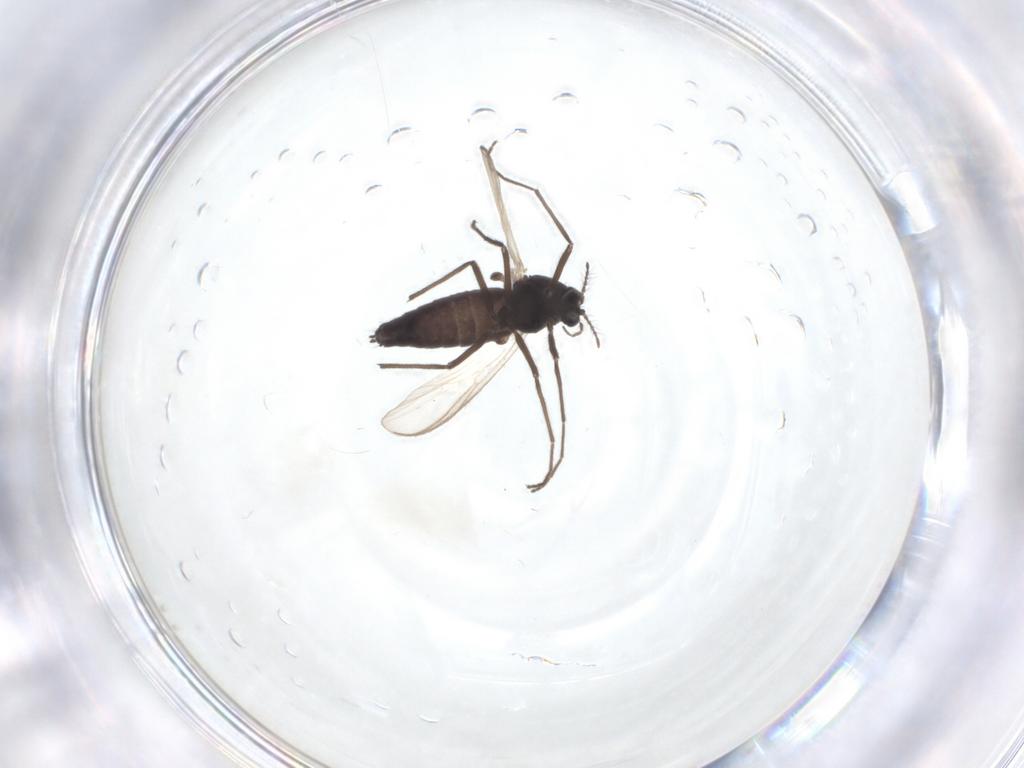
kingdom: Animalia
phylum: Arthropoda
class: Insecta
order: Diptera
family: Chironomidae
